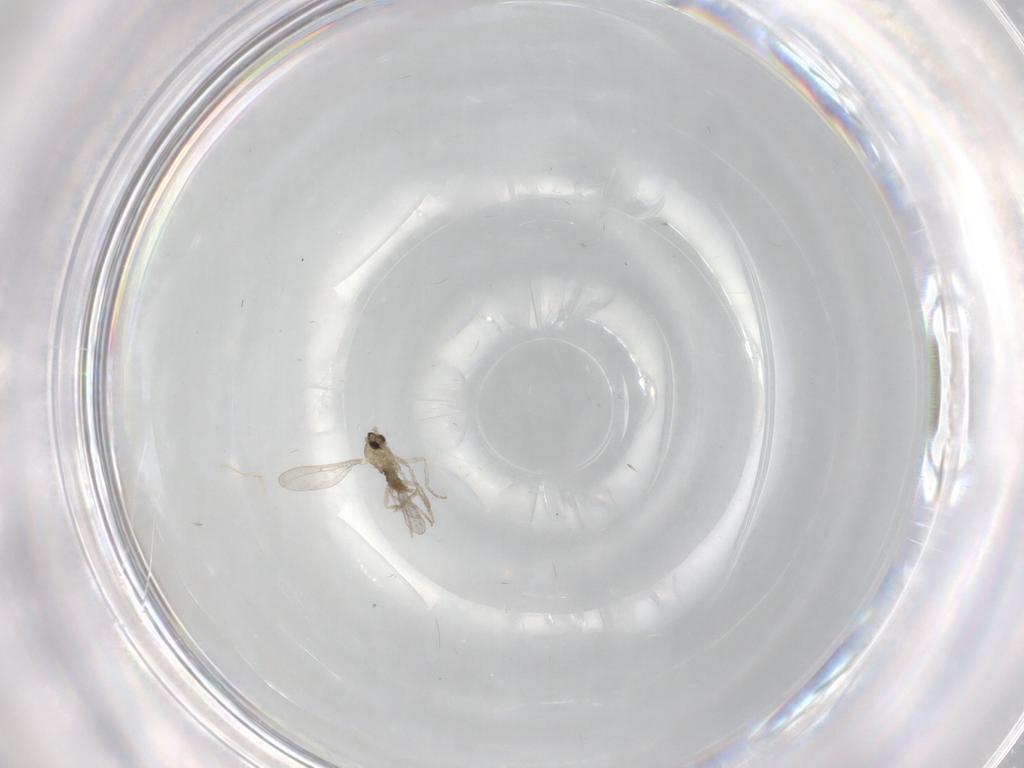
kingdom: Animalia
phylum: Arthropoda
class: Insecta
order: Diptera
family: Cecidomyiidae
